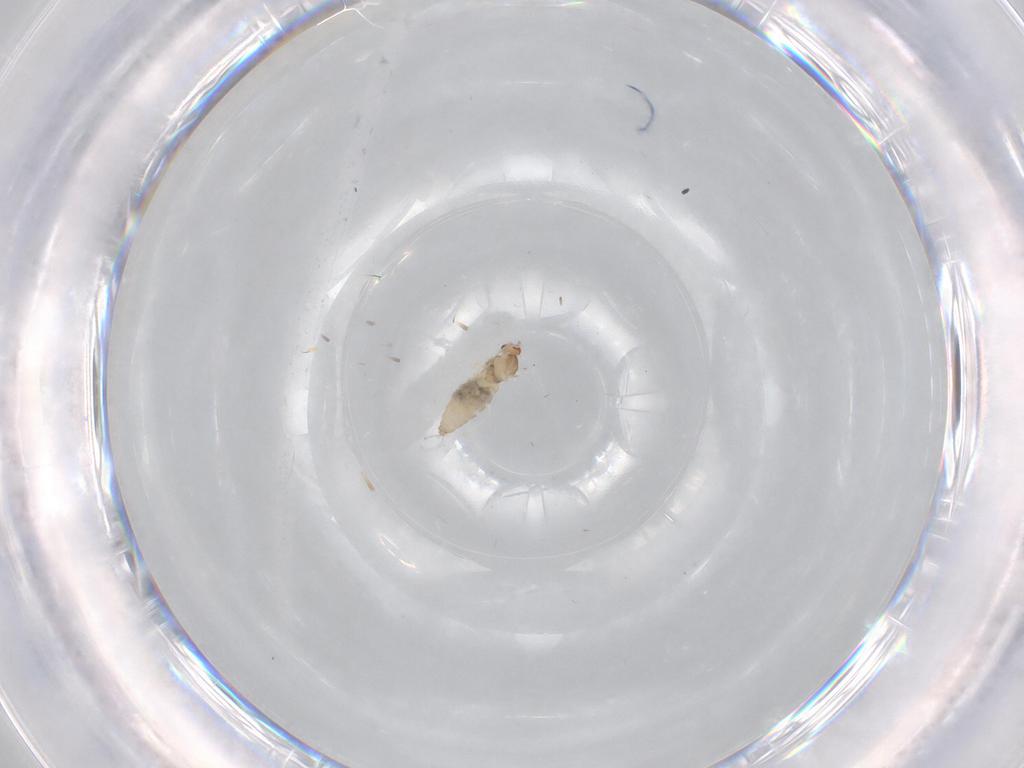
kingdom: Animalia
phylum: Arthropoda
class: Insecta
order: Diptera
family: Cecidomyiidae
